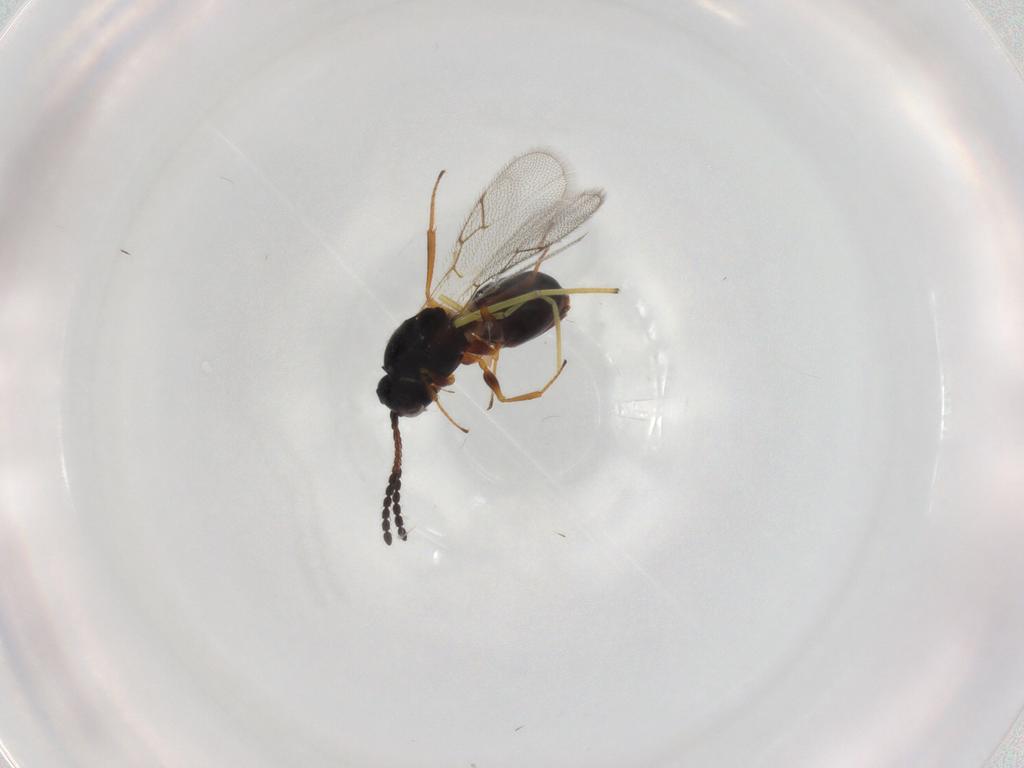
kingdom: Animalia
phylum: Arthropoda
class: Insecta
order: Hymenoptera
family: Figitidae
